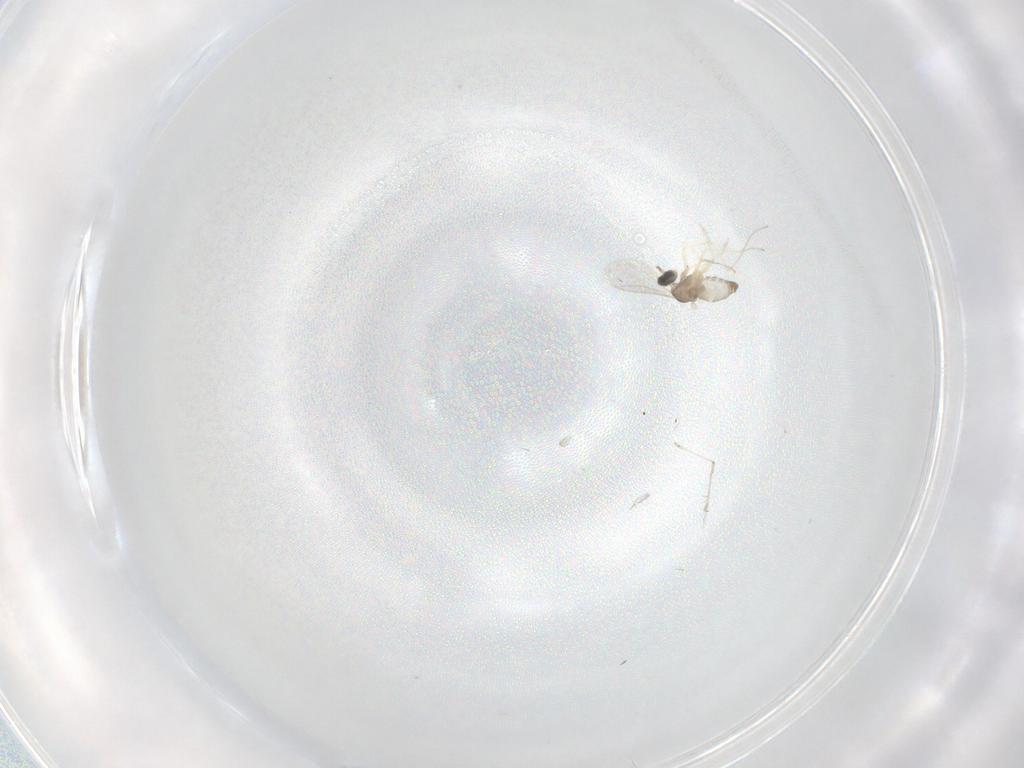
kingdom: Animalia
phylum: Arthropoda
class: Insecta
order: Diptera
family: Cecidomyiidae
